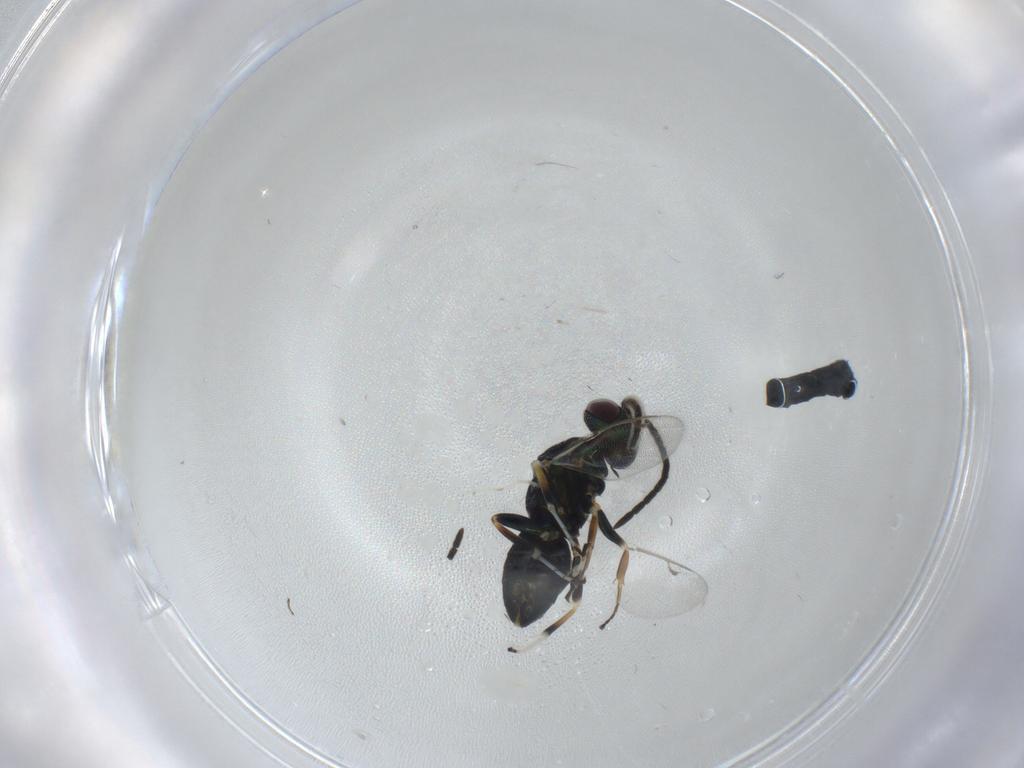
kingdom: Animalia
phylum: Arthropoda
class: Insecta
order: Hymenoptera
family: Eupelmidae
